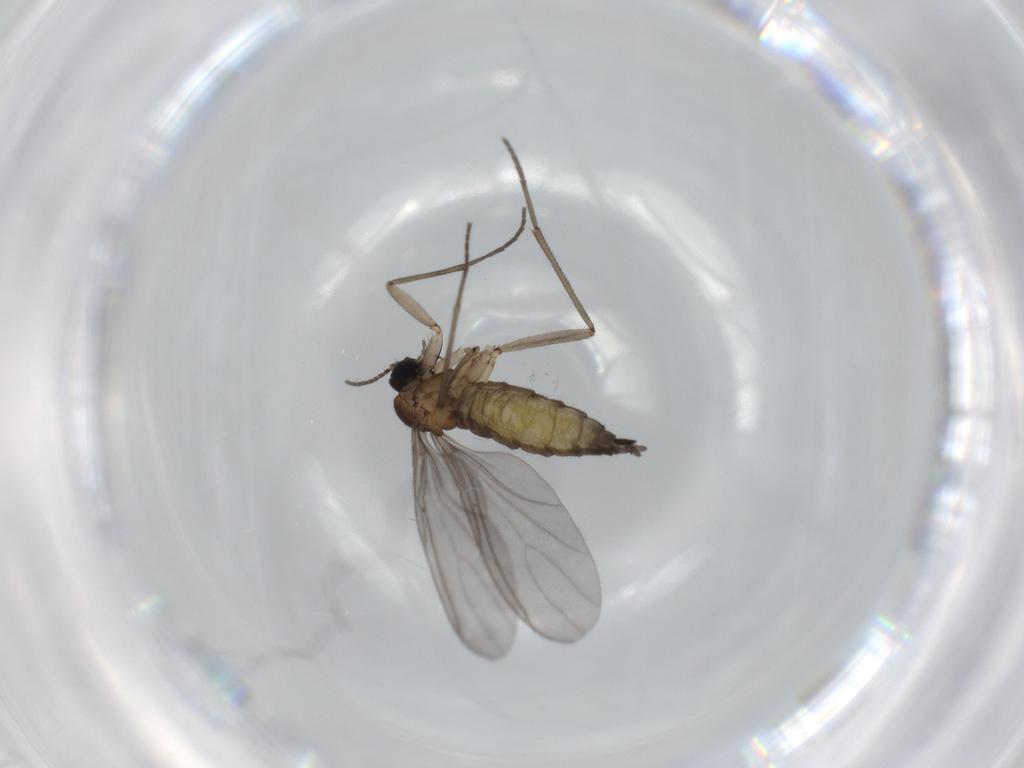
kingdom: Animalia
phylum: Arthropoda
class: Insecta
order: Diptera
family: Sciaridae
